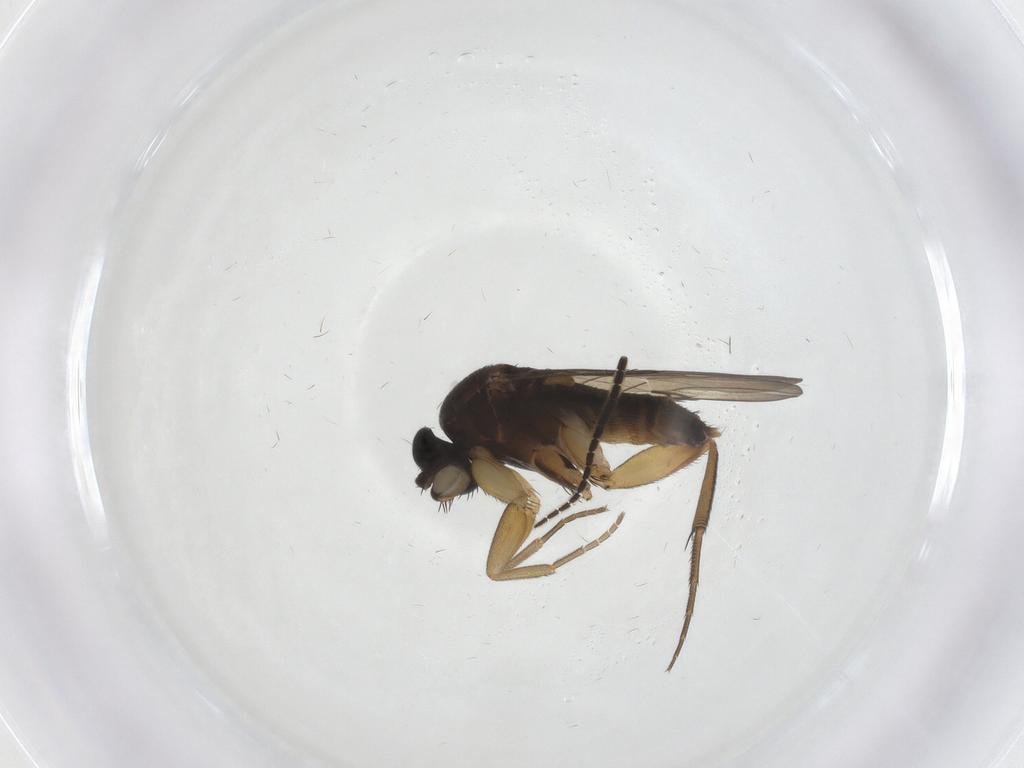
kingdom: Animalia
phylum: Arthropoda
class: Insecta
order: Diptera
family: Phoridae
